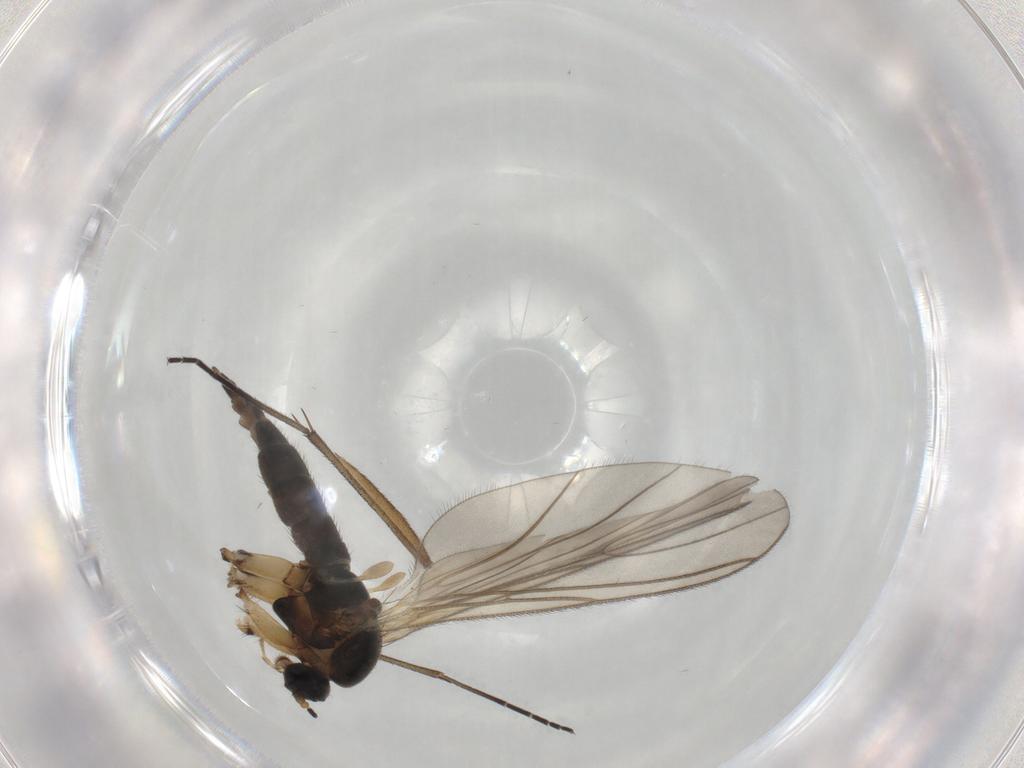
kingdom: Animalia
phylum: Arthropoda
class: Insecta
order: Diptera
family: Sciaridae
